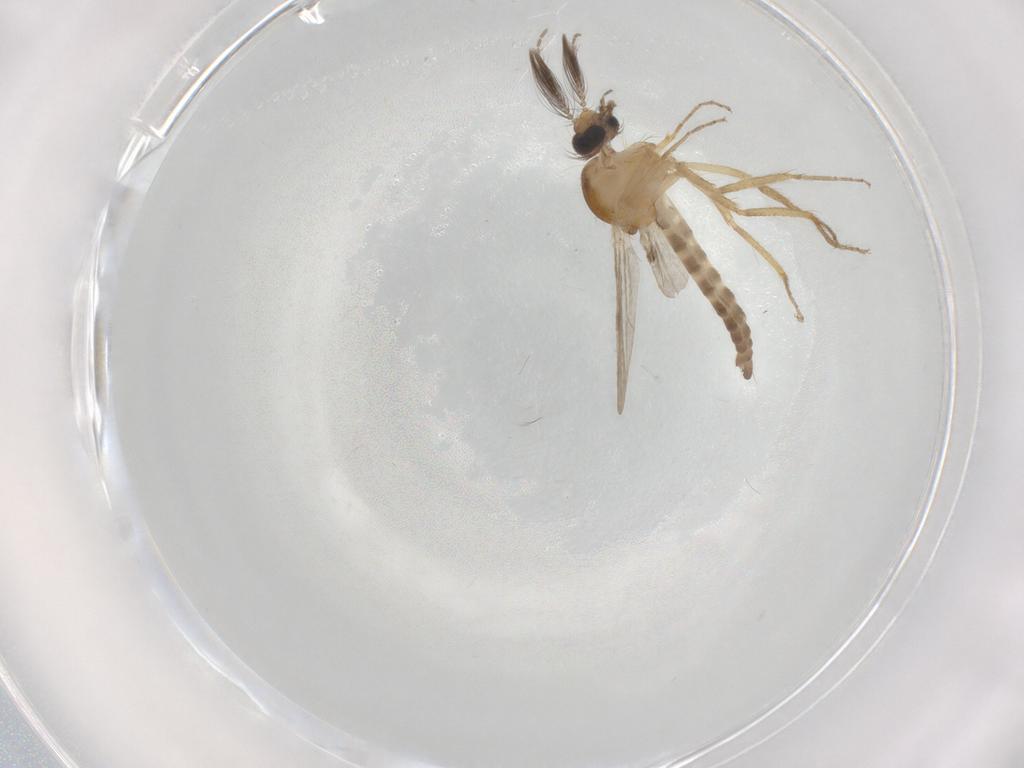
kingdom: Animalia
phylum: Arthropoda
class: Insecta
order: Diptera
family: Ceratopogonidae
